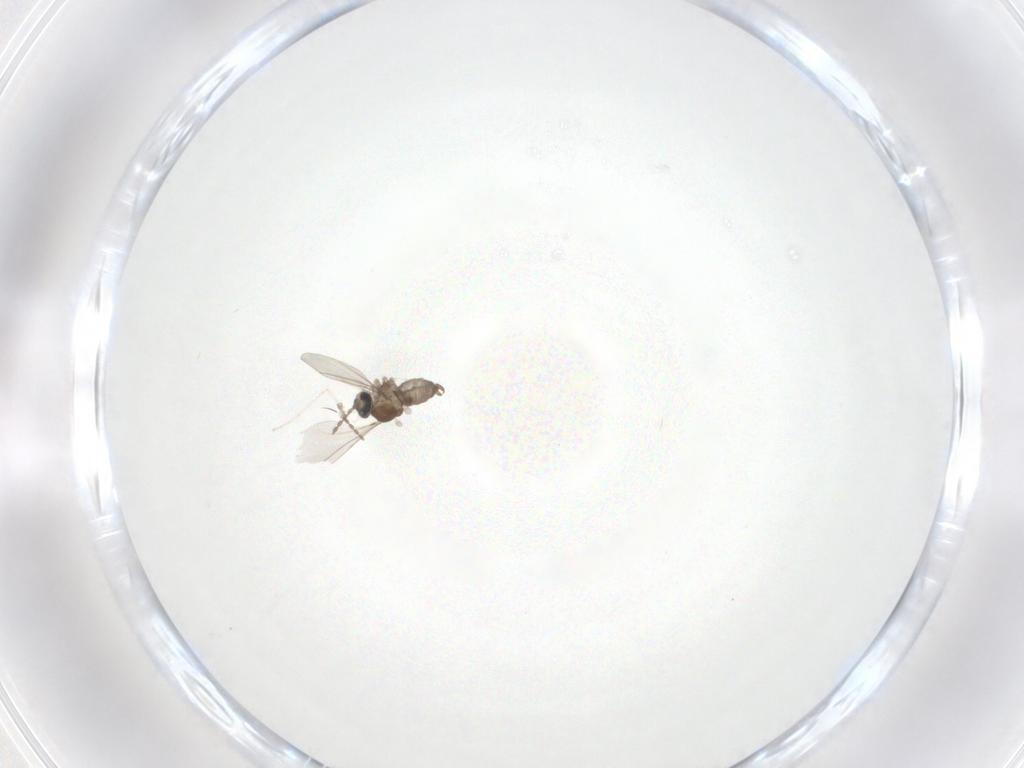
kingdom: Animalia
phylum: Arthropoda
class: Insecta
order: Diptera
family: Cecidomyiidae
